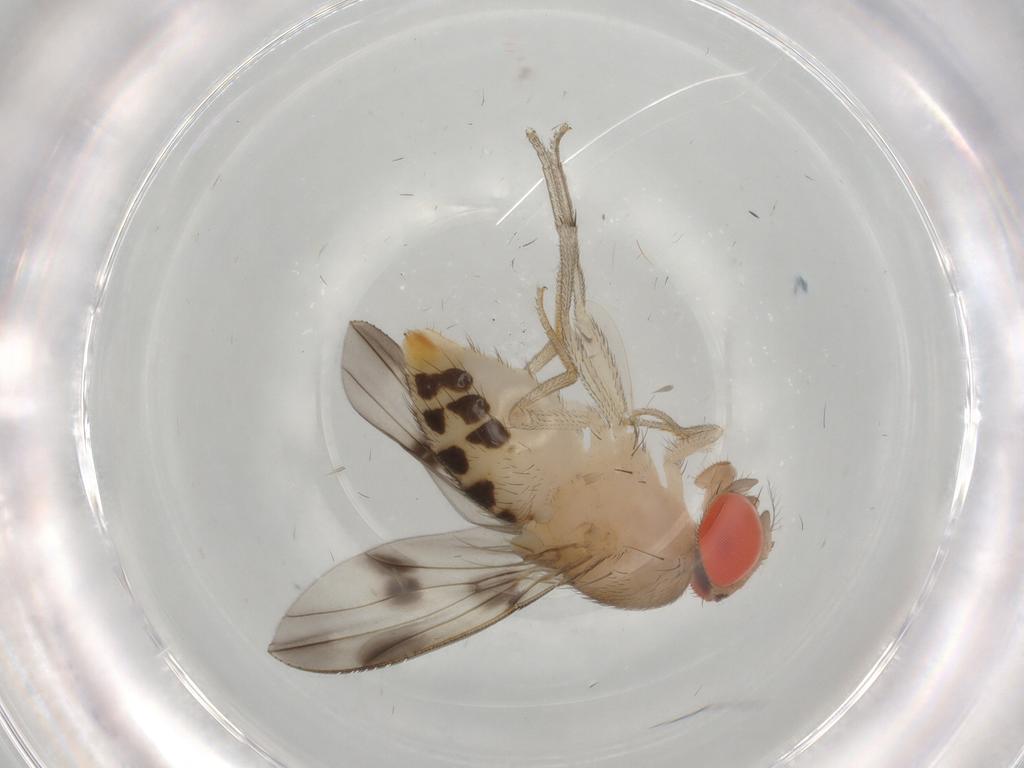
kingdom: Animalia
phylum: Arthropoda
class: Insecta
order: Diptera
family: Drosophilidae
